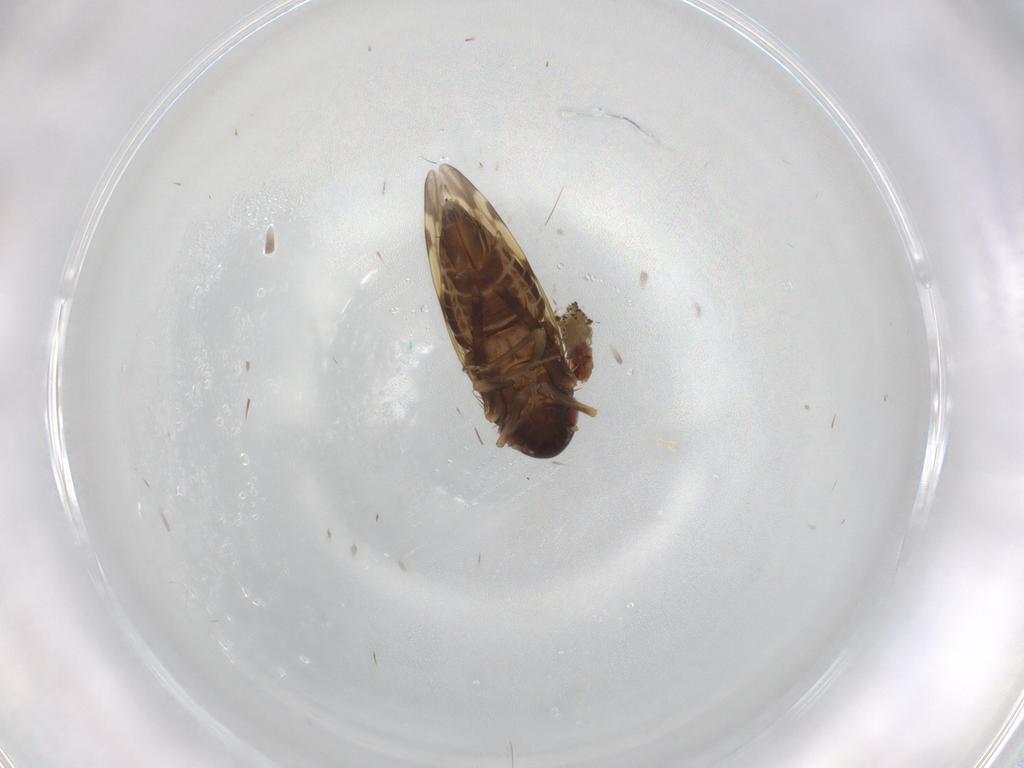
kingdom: Animalia
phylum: Arthropoda
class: Insecta
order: Hemiptera
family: Cicadellidae
